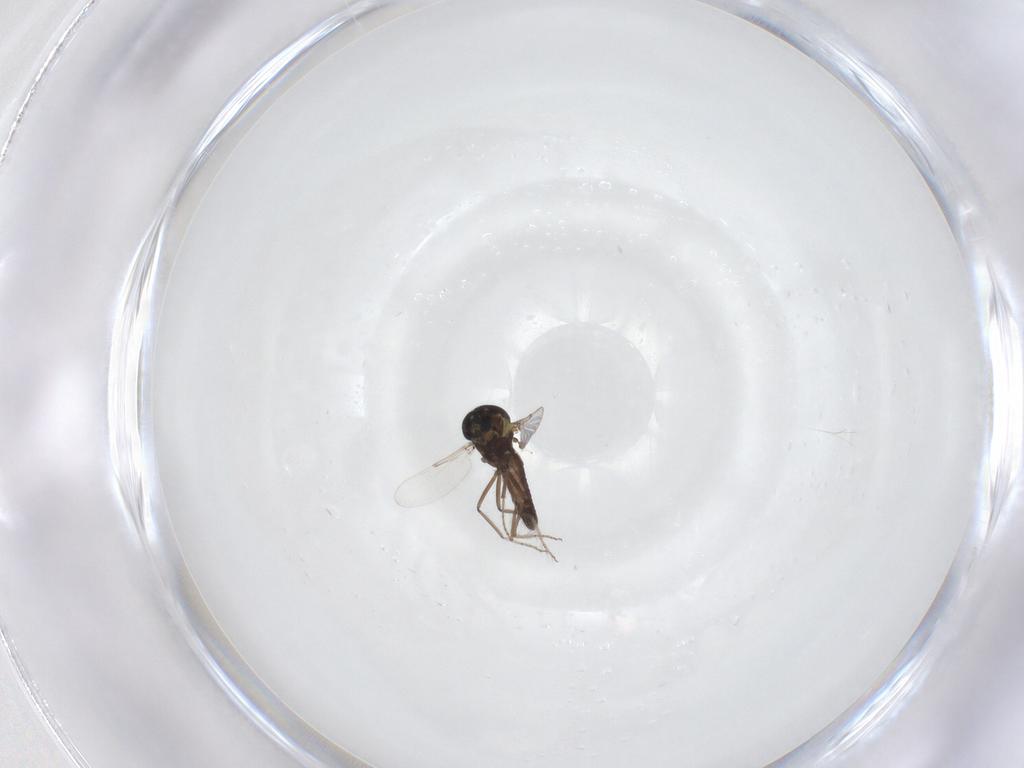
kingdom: Animalia
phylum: Arthropoda
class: Insecta
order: Diptera
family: Ceratopogonidae
